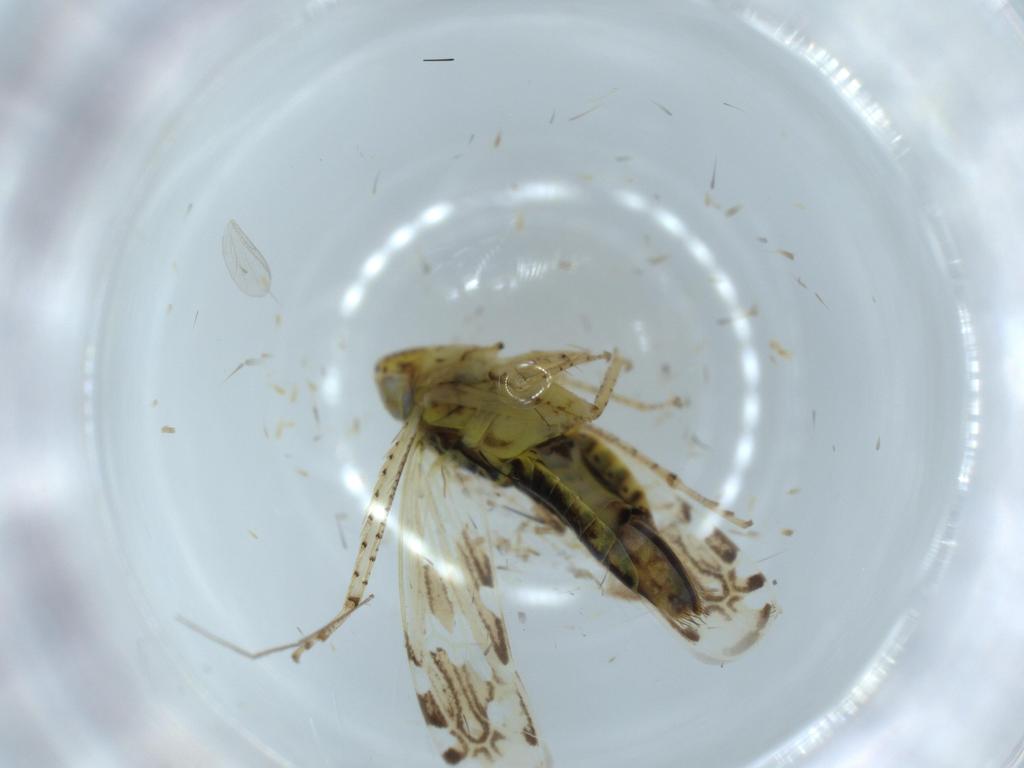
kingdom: Animalia
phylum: Arthropoda
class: Insecta
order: Hemiptera
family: Cicadellidae
